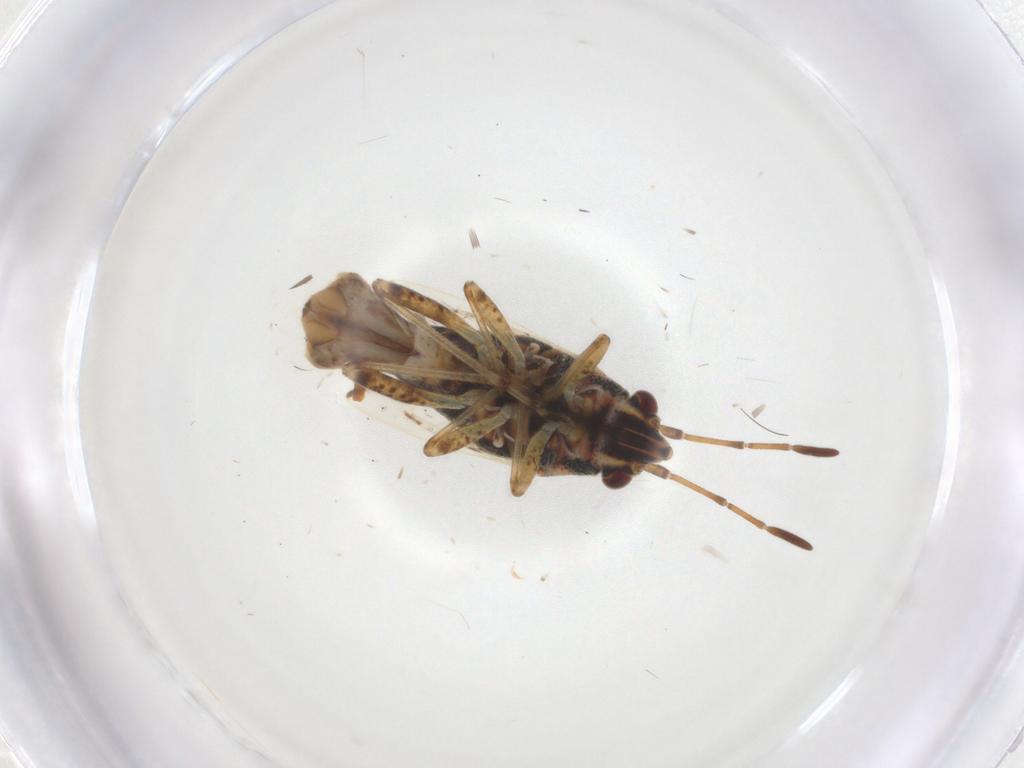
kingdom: Animalia
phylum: Arthropoda
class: Insecta
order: Hemiptera
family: Lygaeidae
